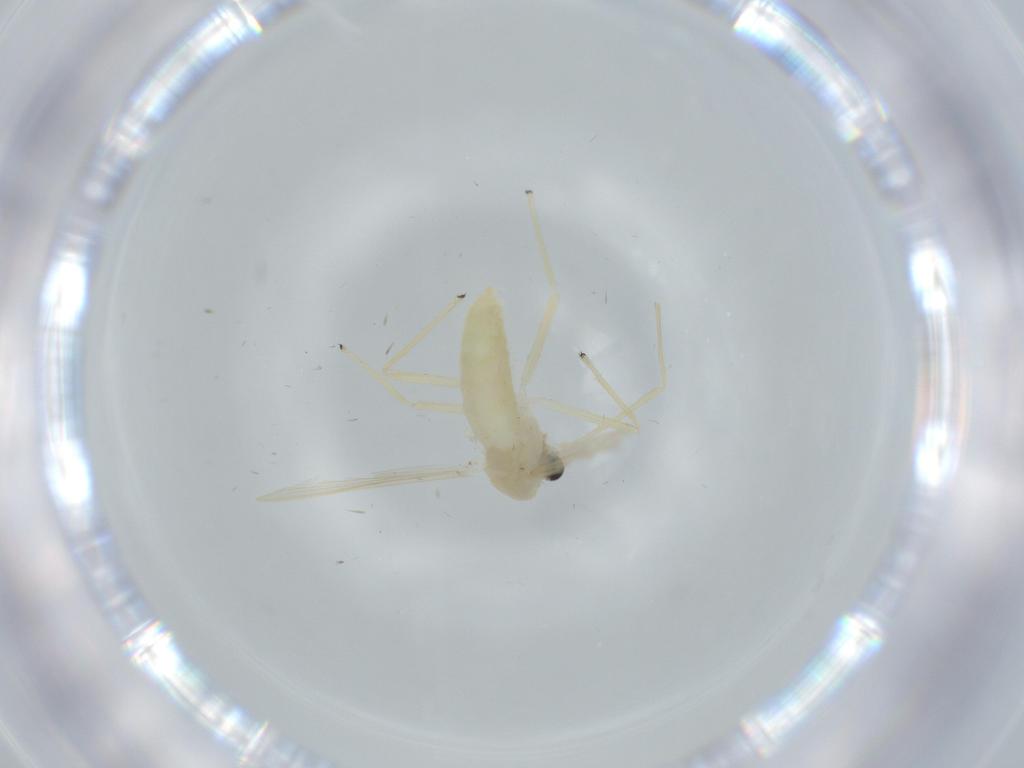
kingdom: Animalia
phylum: Arthropoda
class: Insecta
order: Diptera
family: Chironomidae
